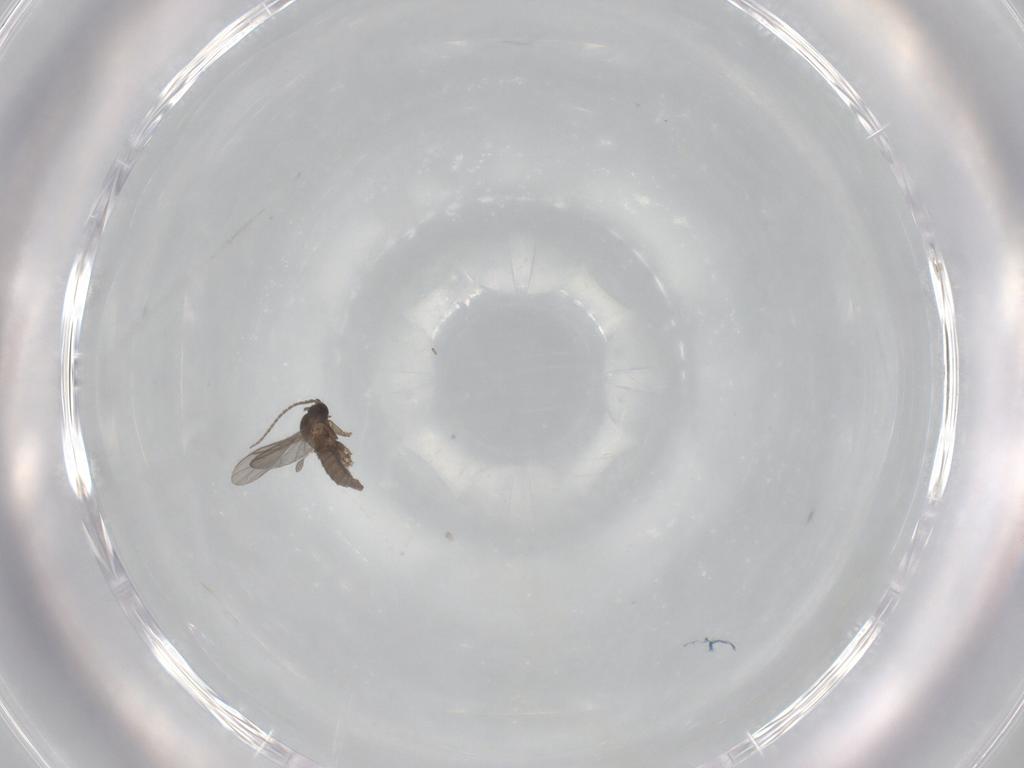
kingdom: Animalia
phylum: Arthropoda
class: Insecta
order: Diptera
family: Sciaridae
